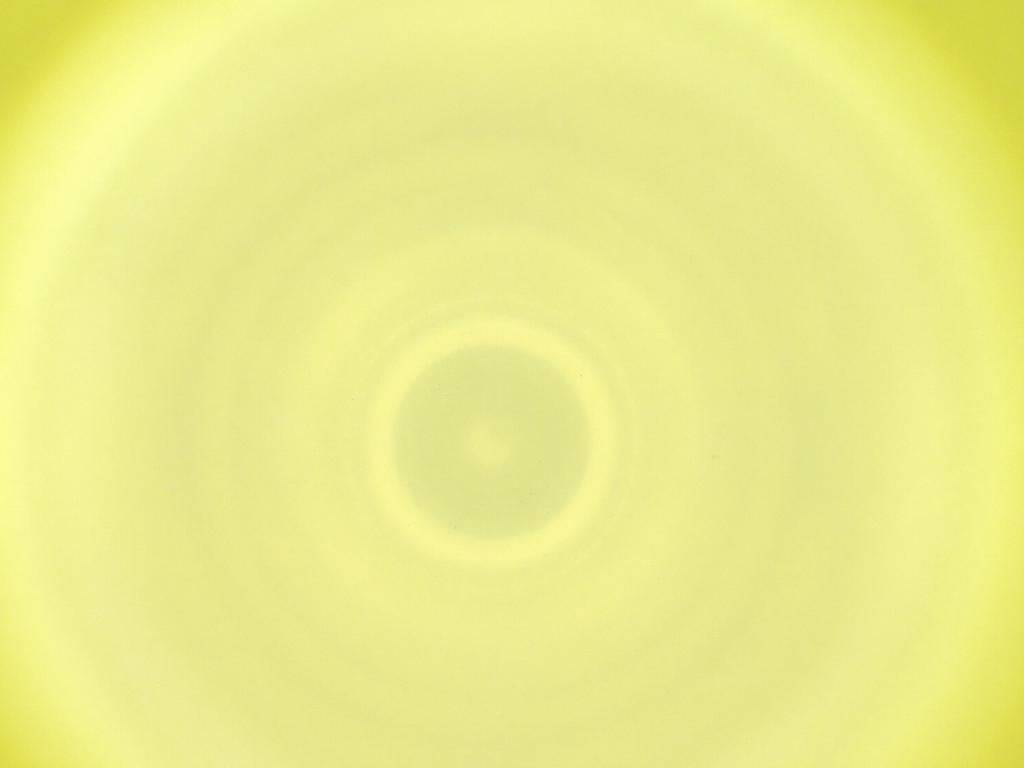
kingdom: Animalia
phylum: Arthropoda
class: Insecta
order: Diptera
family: Cecidomyiidae
